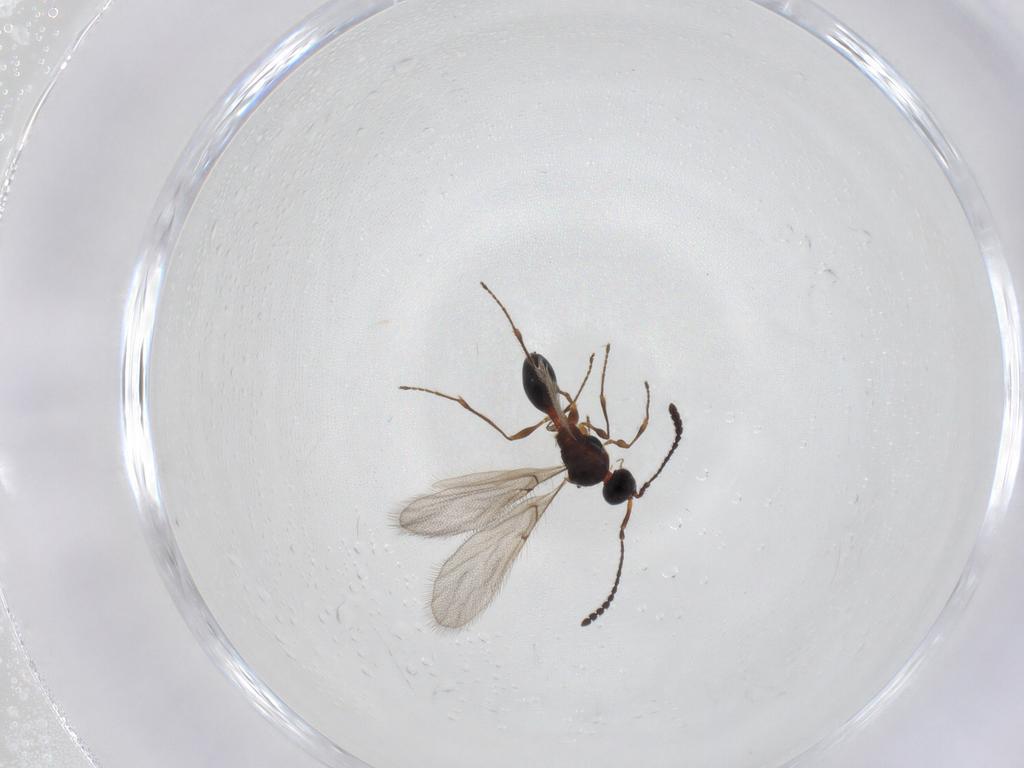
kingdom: Animalia
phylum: Arthropoda
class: Insecta
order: Hymenoptera
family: Diapriidae
